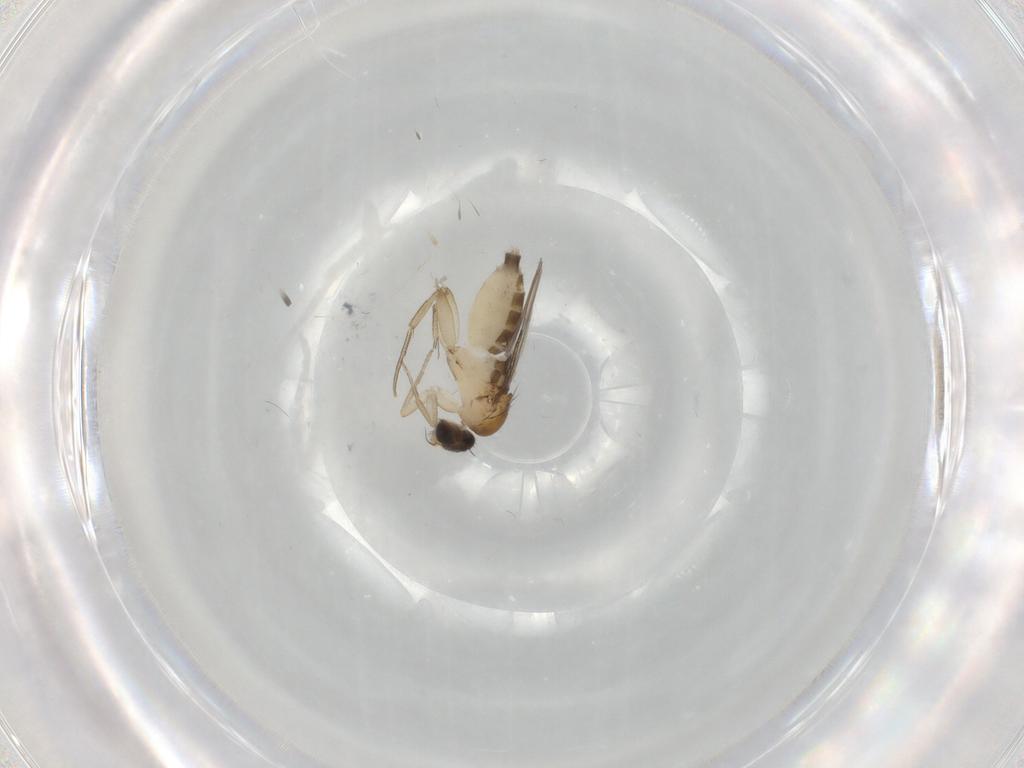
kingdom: Animalia
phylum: Arthropoda
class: Insecta
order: Diptera
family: Phoridae
